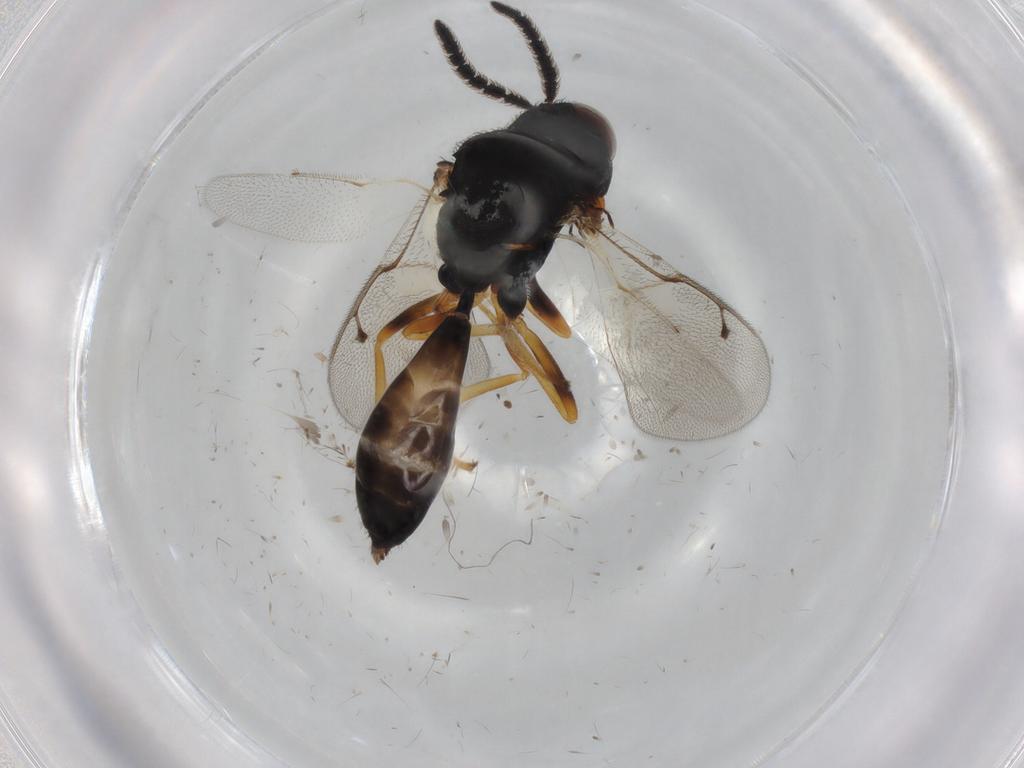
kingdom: Animalia
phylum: Arthropoda
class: Insecta
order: Hymenoptera
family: Pteromalidae
